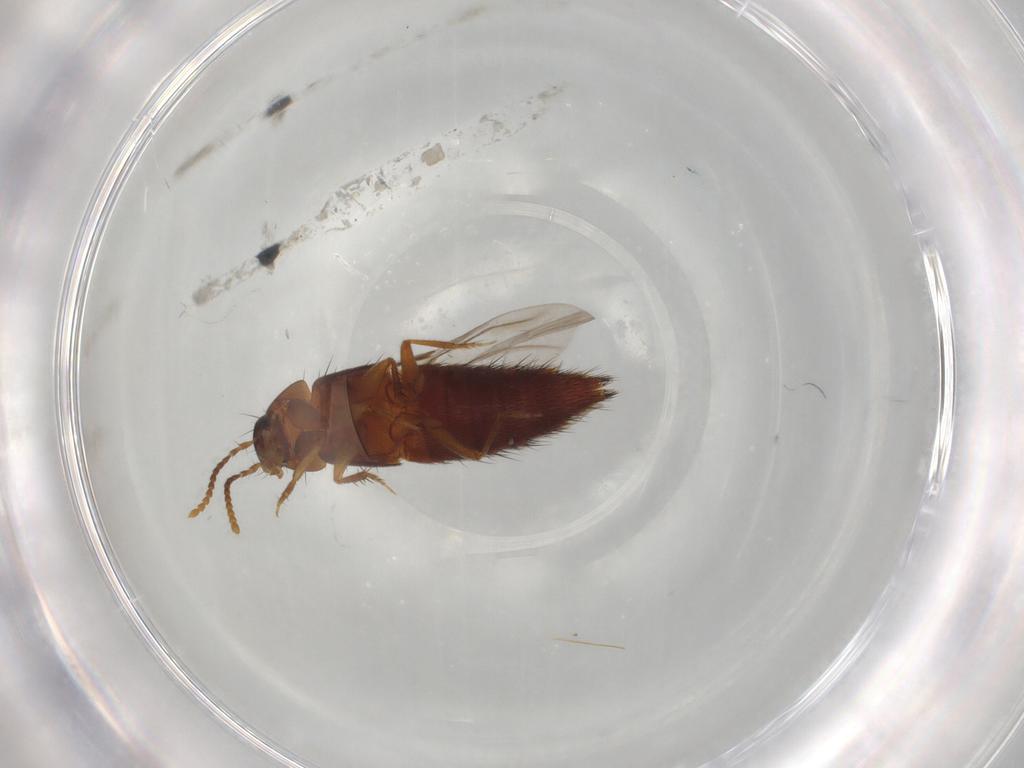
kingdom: Animalia
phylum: Arthropoda
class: Insecta
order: Coleoptera
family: Staphylinidae
